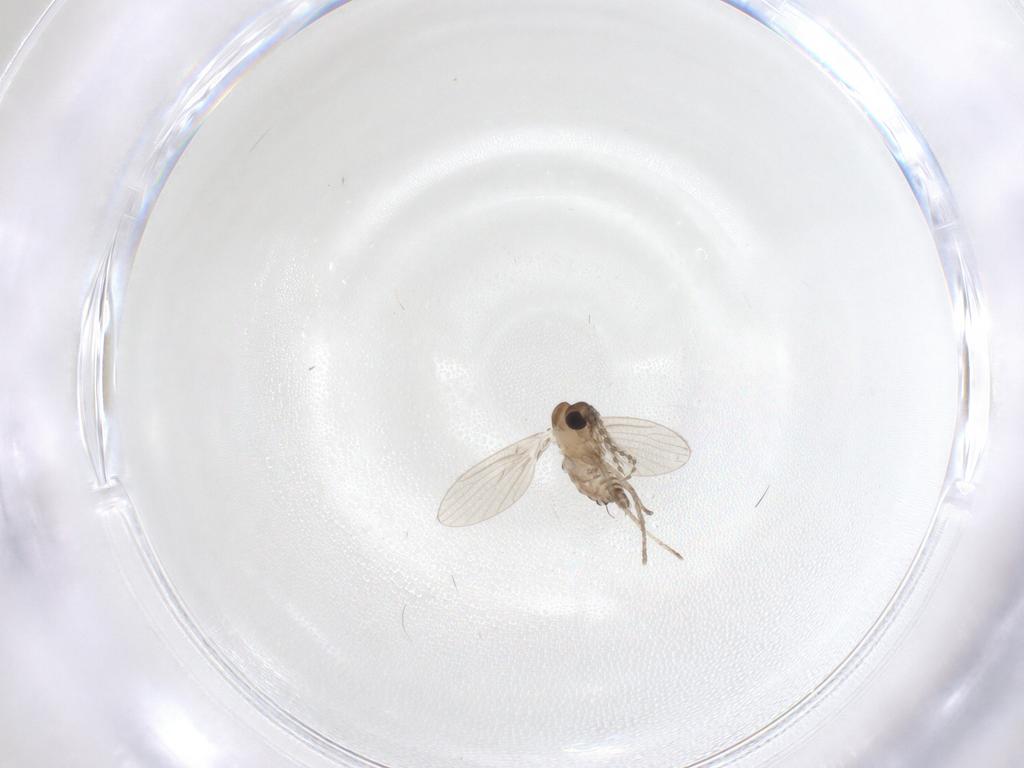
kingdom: Animalia
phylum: Arthropoda
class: Insecta
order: Diptera
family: Psychodidae
